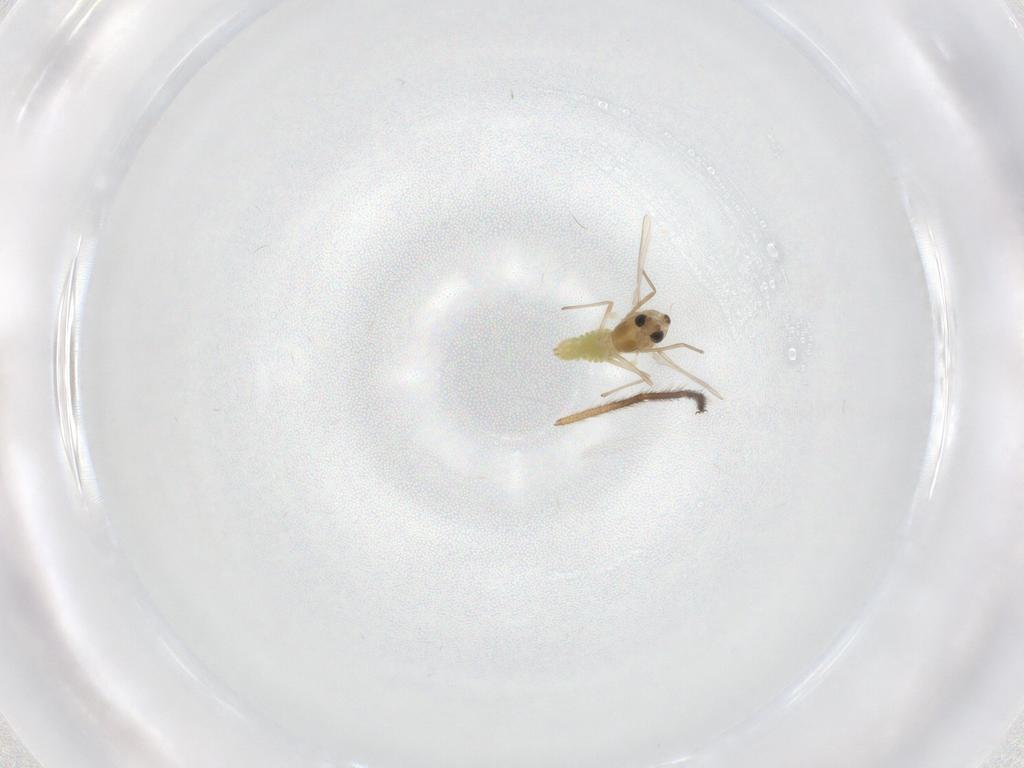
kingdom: Animalia
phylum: Arthropoda
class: Insecta
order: Diptera
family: Chironomidae
